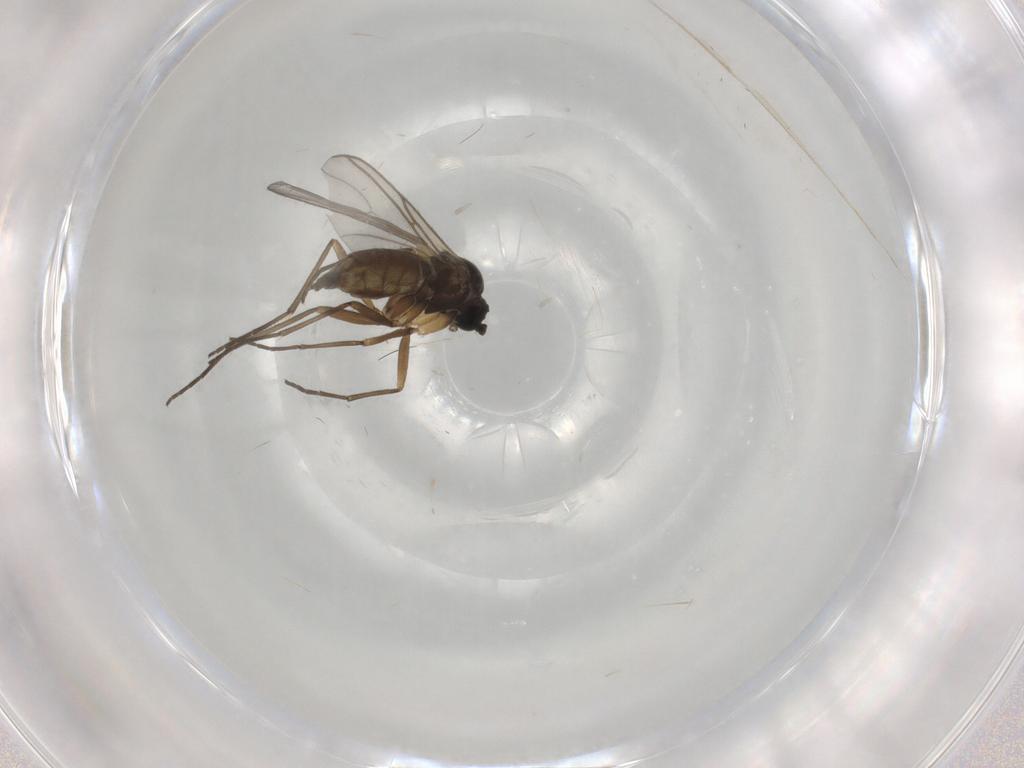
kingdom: Animalia
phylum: Arthropoda
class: Insecta
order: Diptera
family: Sciaridae
